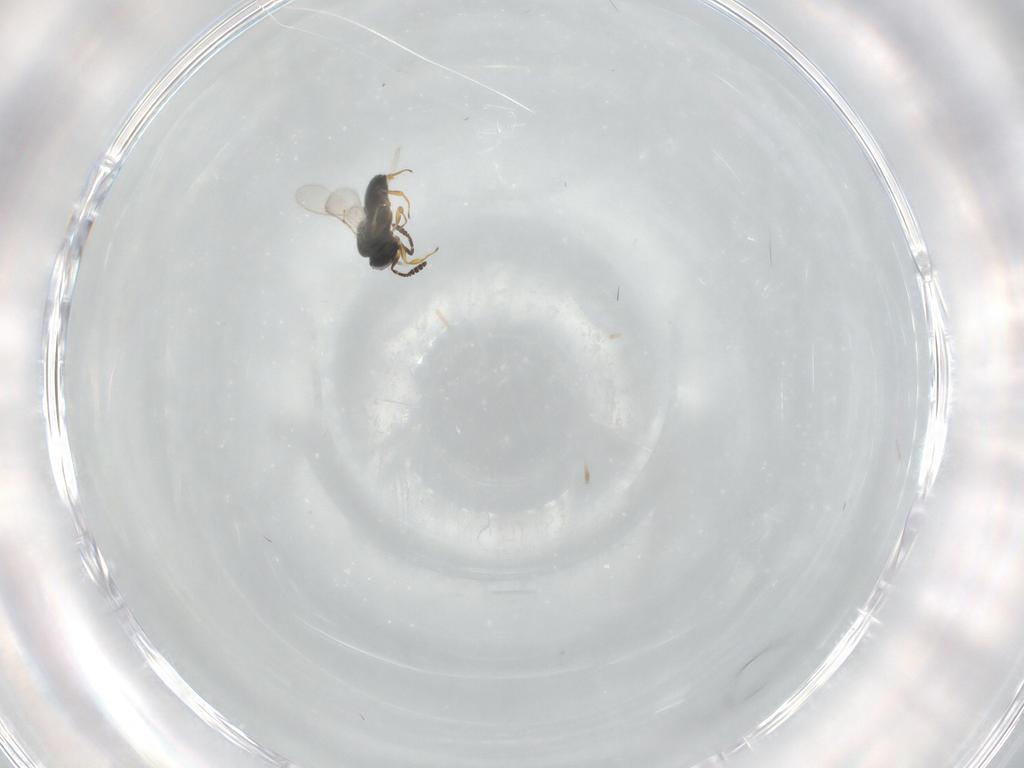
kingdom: Animalia
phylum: Arthropoda
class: Insecta
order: Hymenoptera
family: Scelionidae
